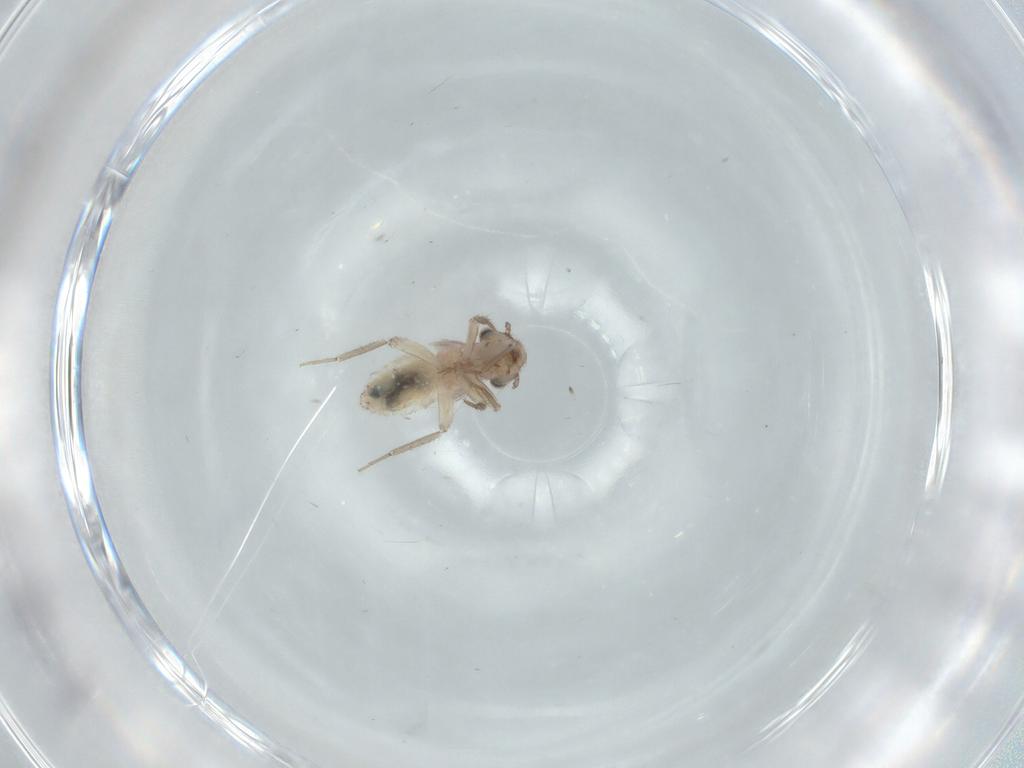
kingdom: Animalia
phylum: Arthropoda
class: Insecta
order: Psocodea
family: Lepidopsocidae
